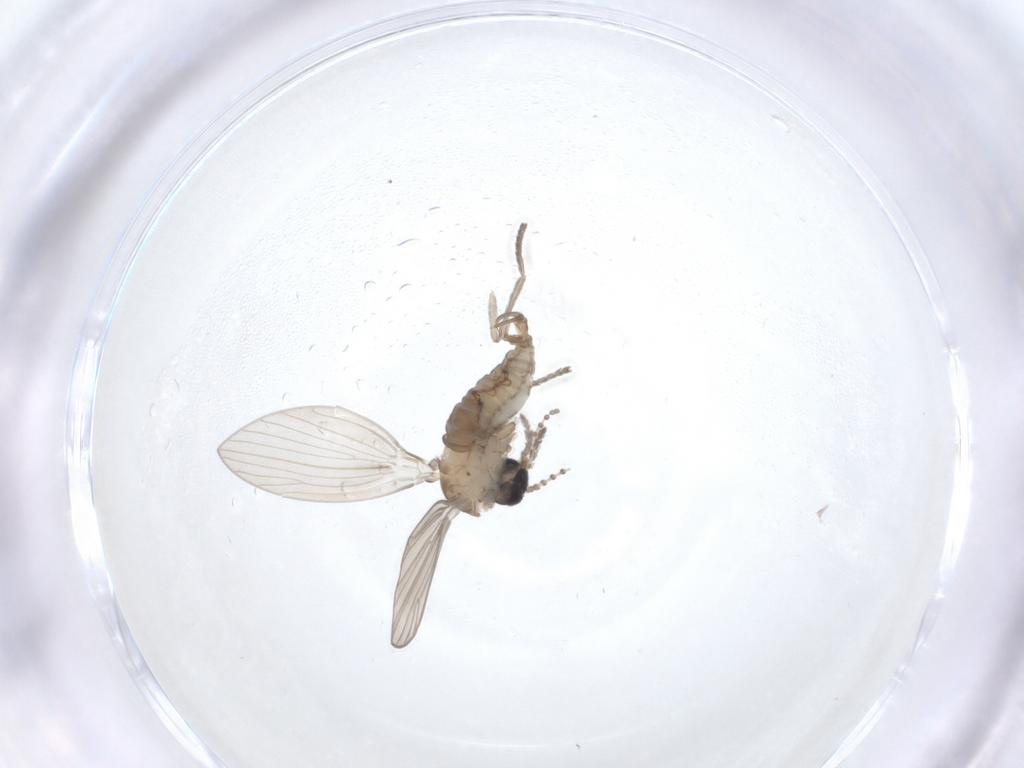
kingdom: Animalia
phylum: Arthropoda
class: Insecta
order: Diptera
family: Psychodidae
